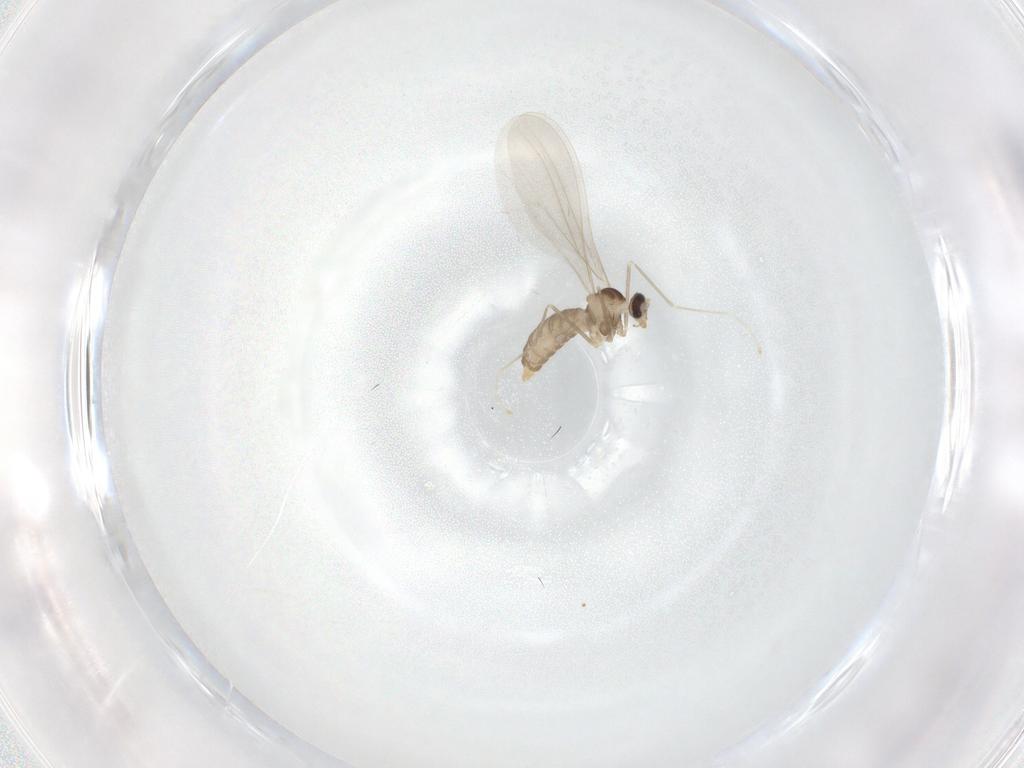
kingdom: Animalia
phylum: Arthropoda
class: Insecta
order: Diptera
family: Cecidomyiidae
